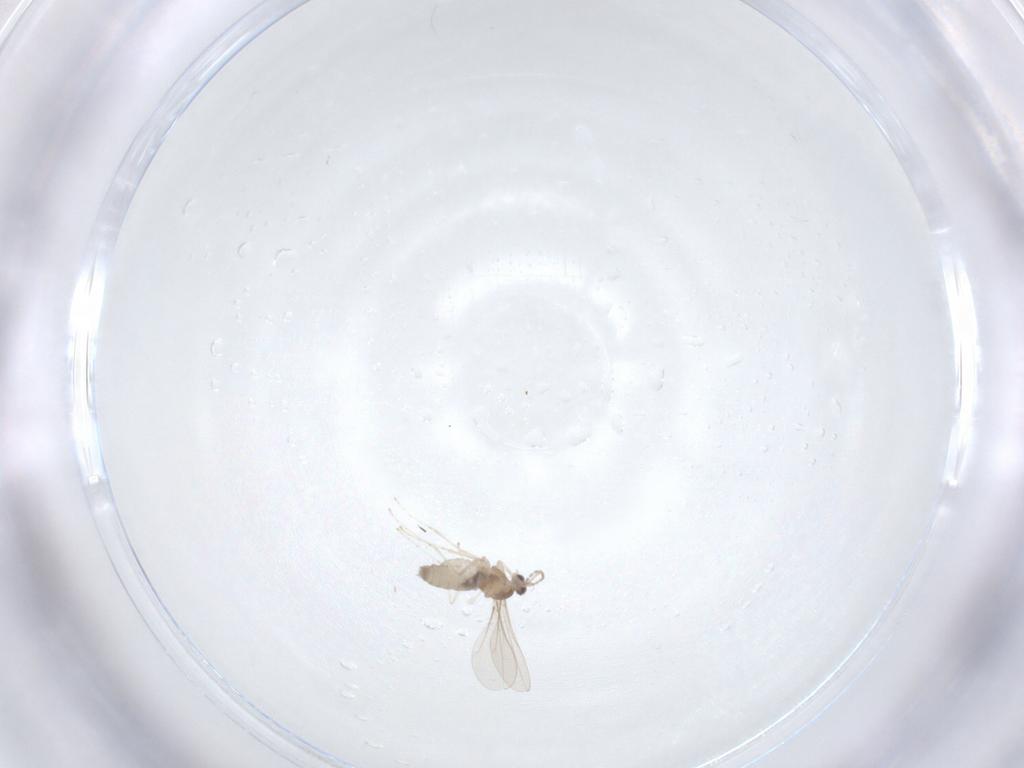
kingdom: Animalia
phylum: Arthropoda
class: Insecta
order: Diptera
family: Cecidomyiidae
